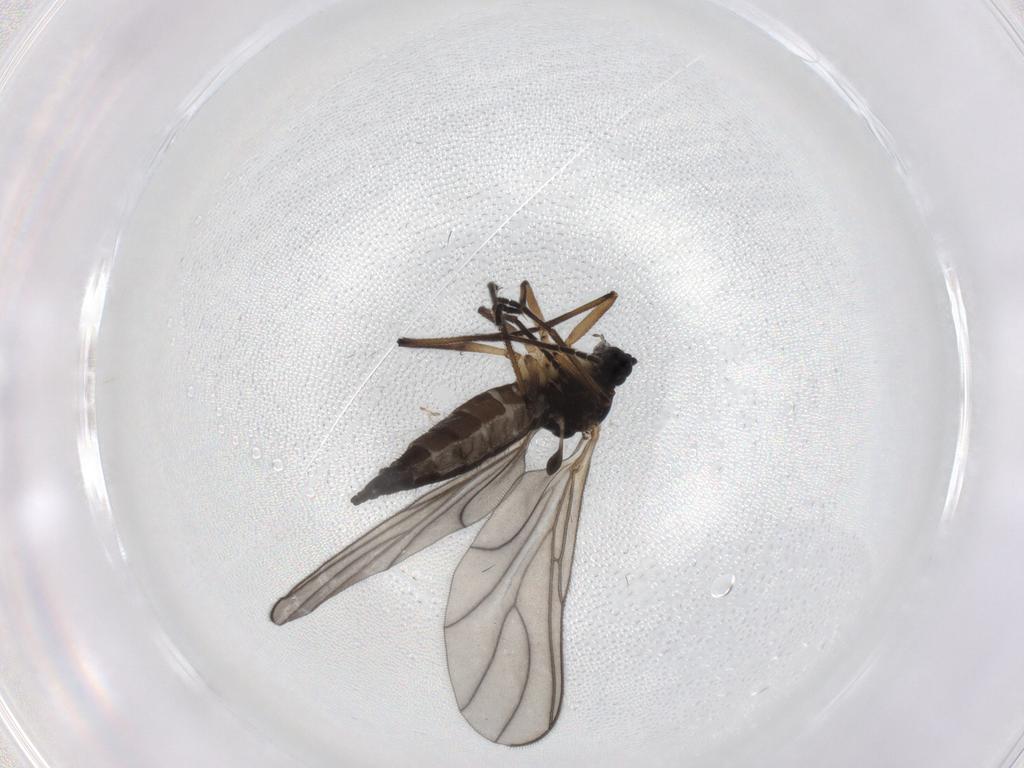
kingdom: Animalia
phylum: Arthropoda
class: Insecta
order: Diptera
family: Sciaridae
